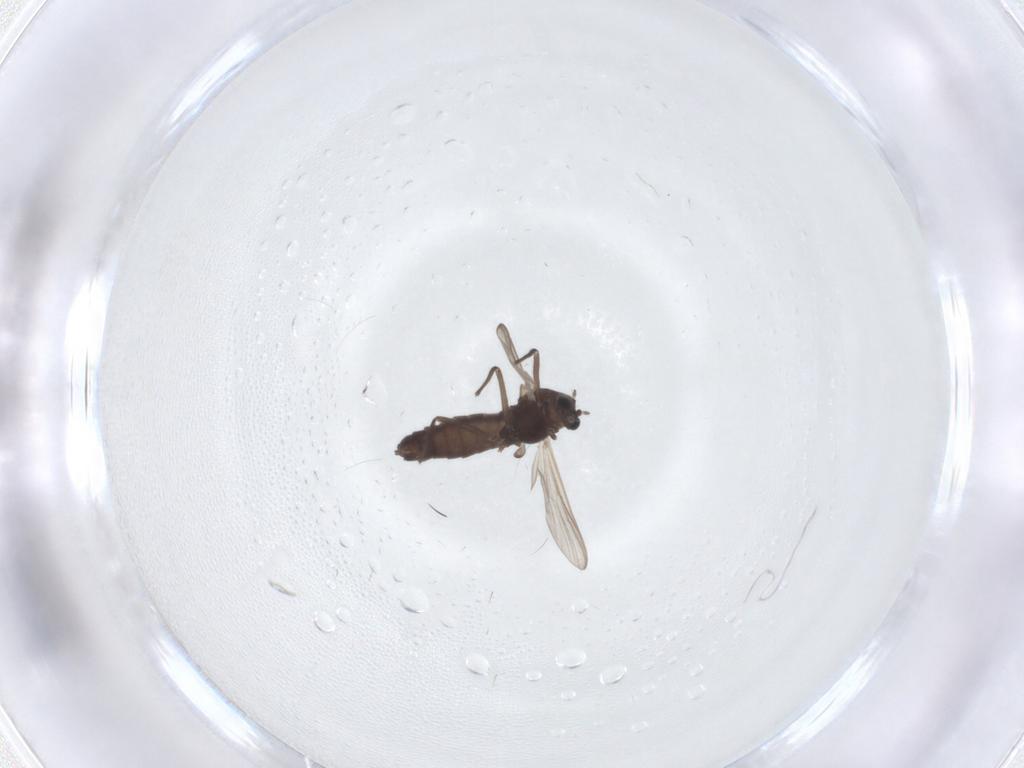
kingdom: Animalia
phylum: Arthropoda
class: Insecta
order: Diptera
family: Chironomidae
